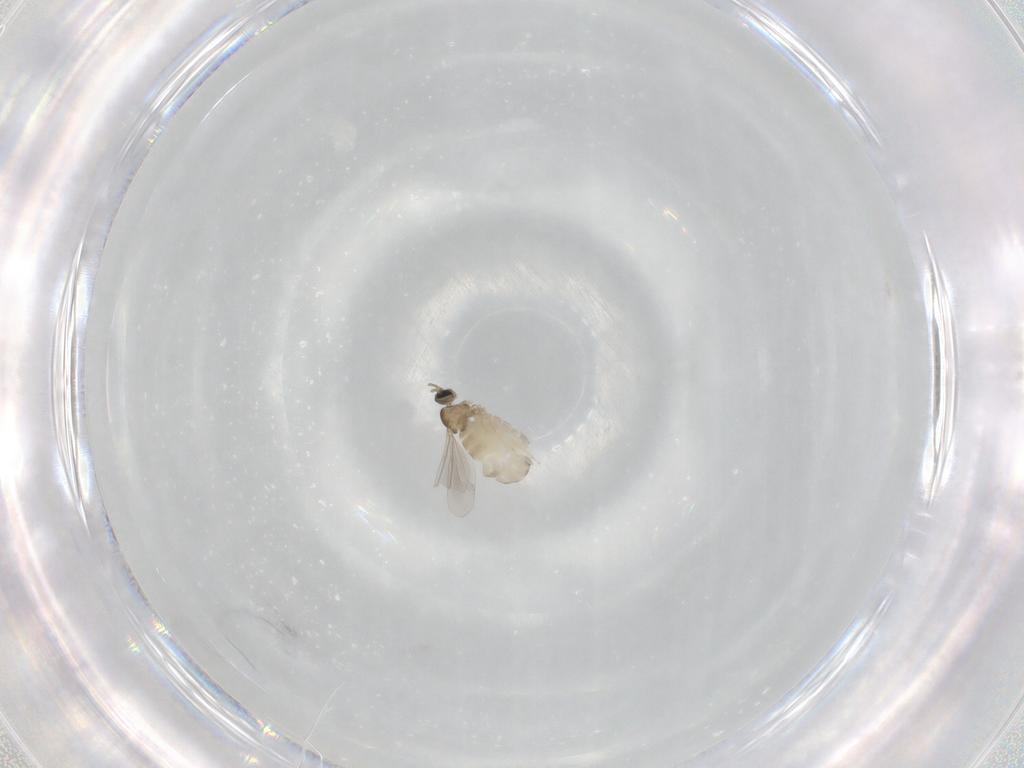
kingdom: Animalia
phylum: Arthropoda
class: Insecta
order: Diptera
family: Cecidomyiidae
